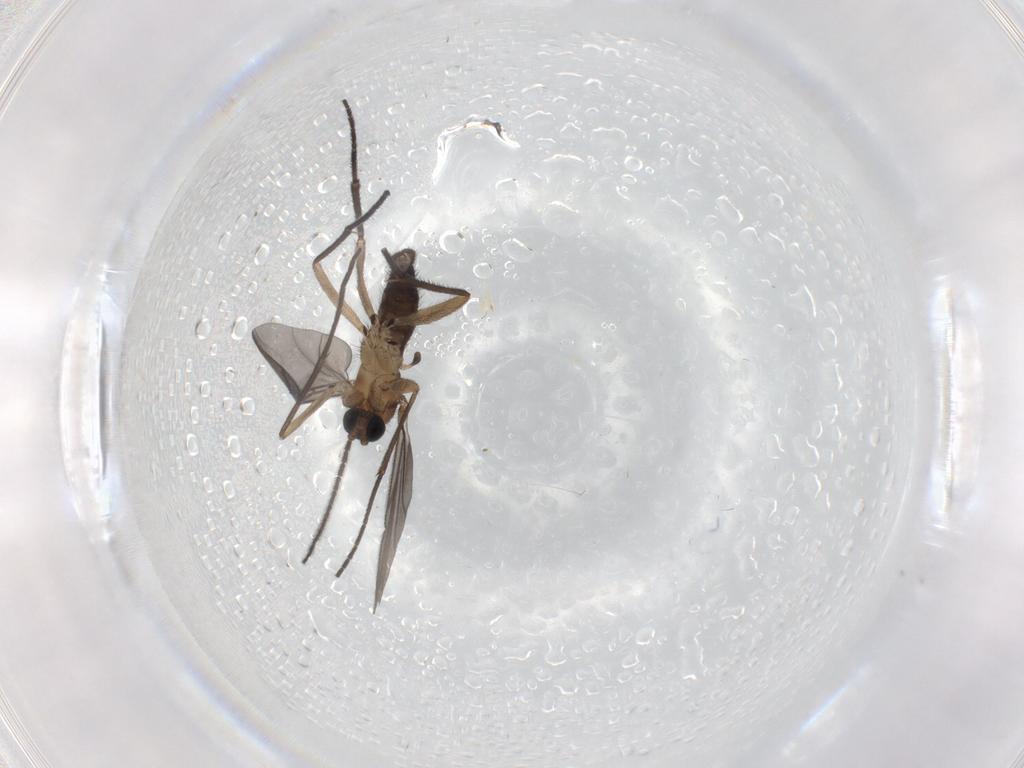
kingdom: Animalia
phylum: Arthropoda
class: Insecta
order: Diptera
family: Sciaridae
